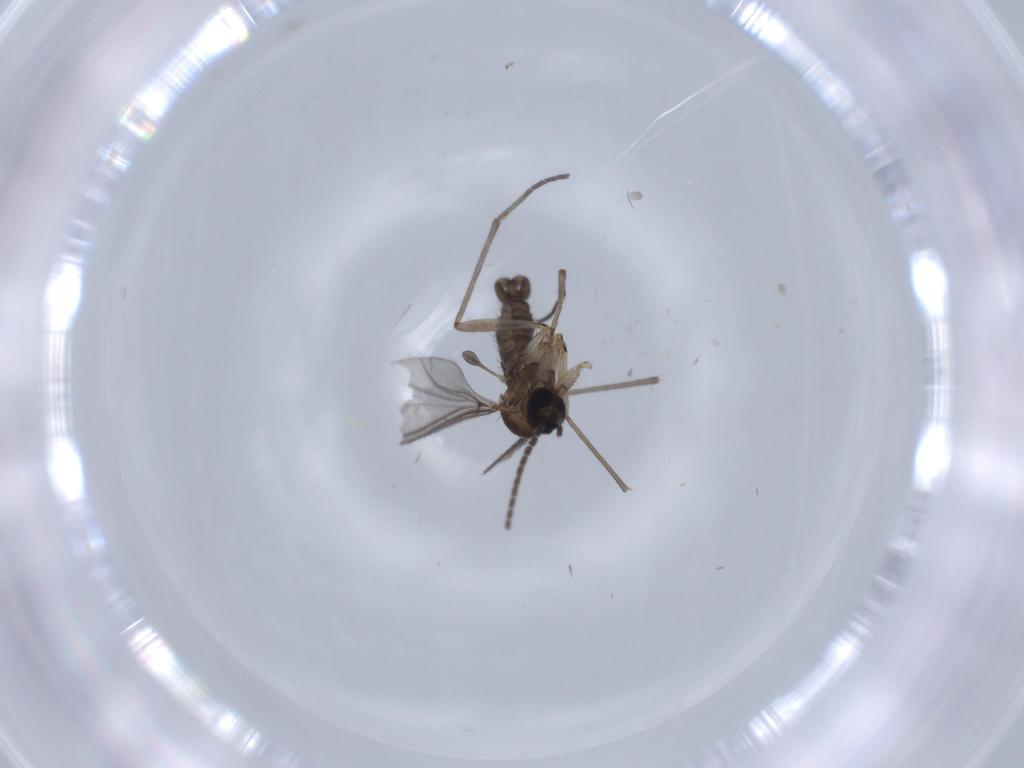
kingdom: Animalia
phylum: Arthropoda
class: Insecta
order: Diptera
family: Sciaridae
